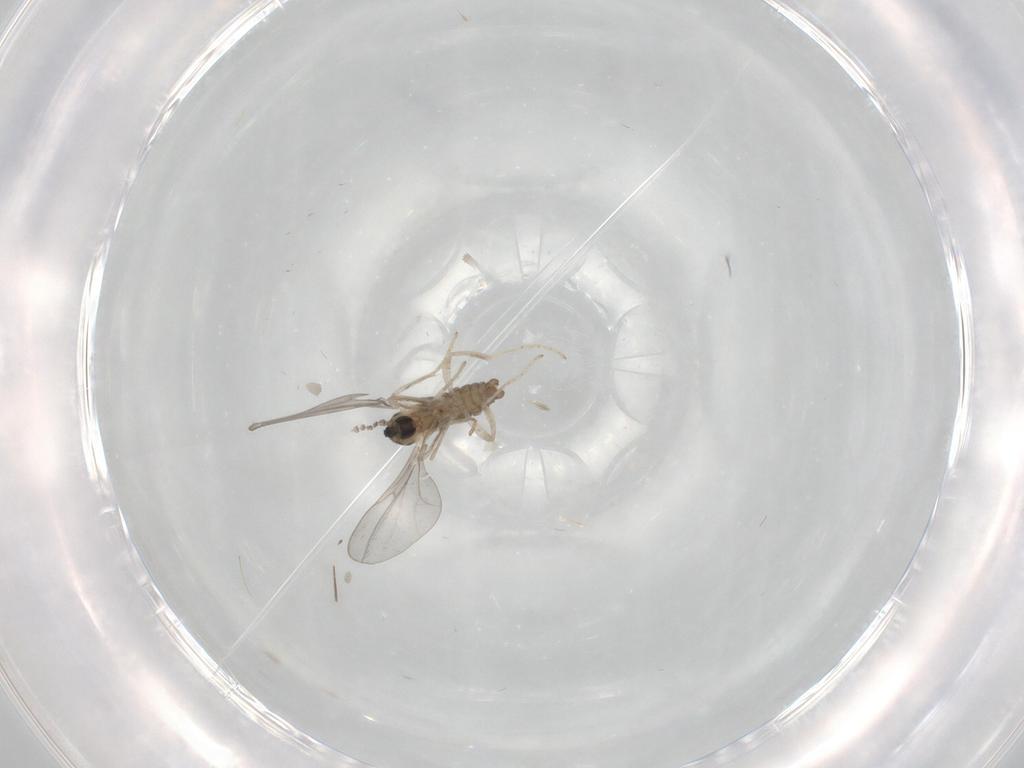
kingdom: Animalia
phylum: Arthropoda
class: Insecta
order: Diptera
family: Cecidomyiidae
